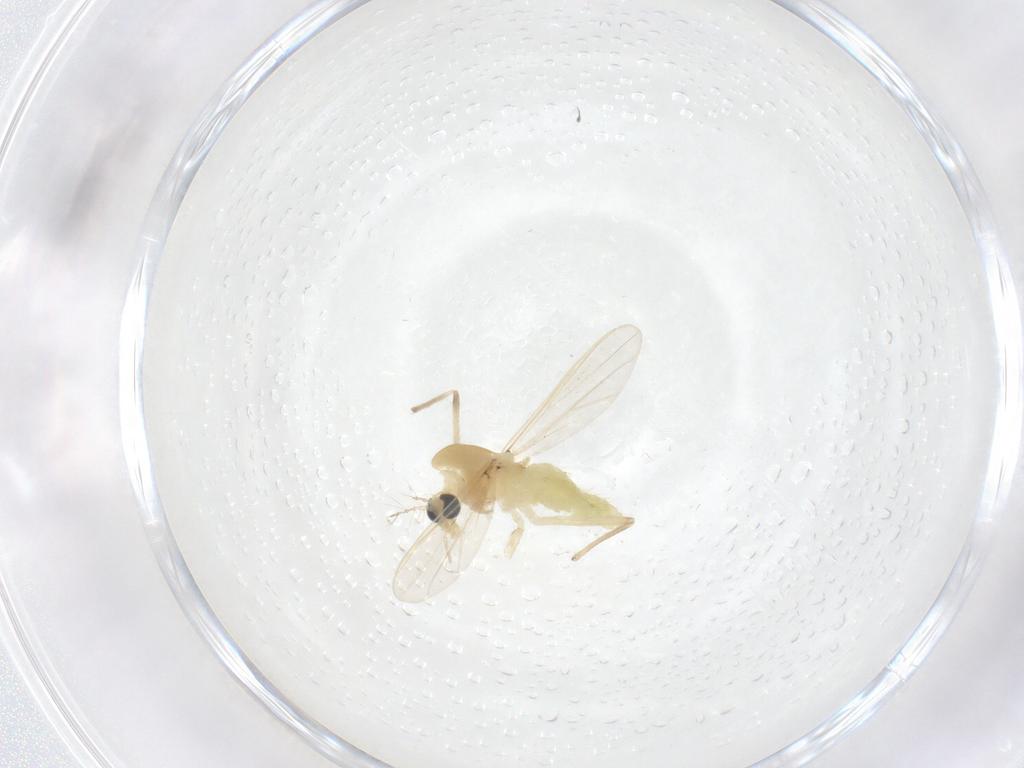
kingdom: Animalia
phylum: Arthropoda
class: Insecta
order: Diptera
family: Chironomidae
